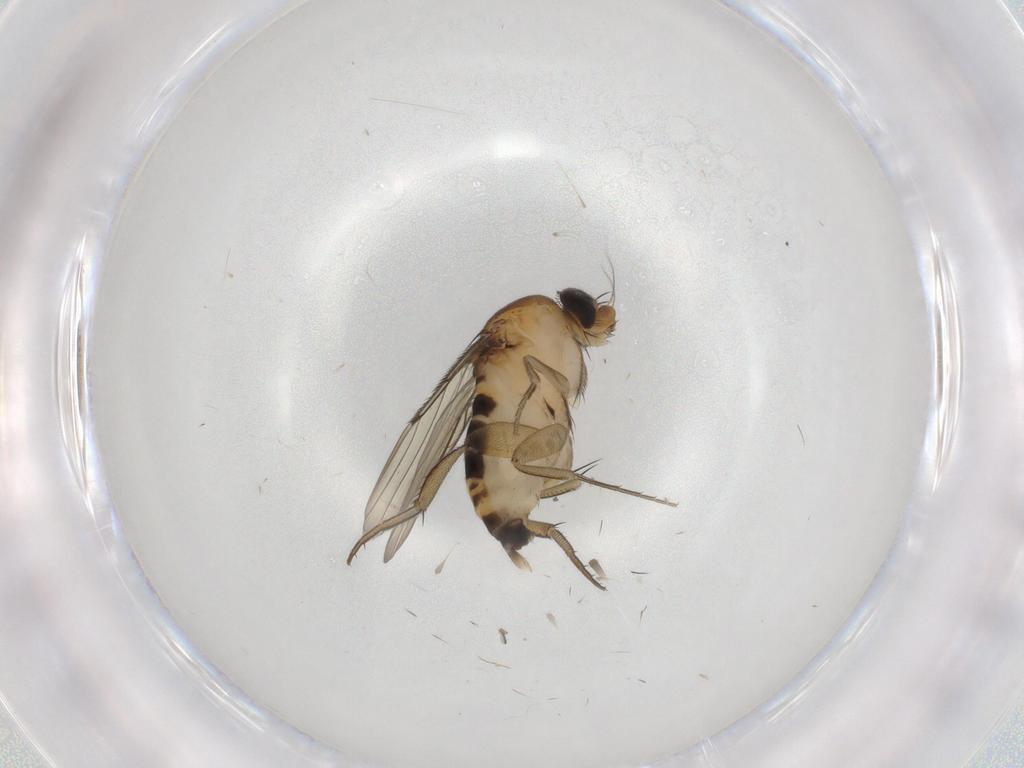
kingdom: Animalia
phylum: Arthropoda
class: Insecta
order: Diptera
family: Phoridae
